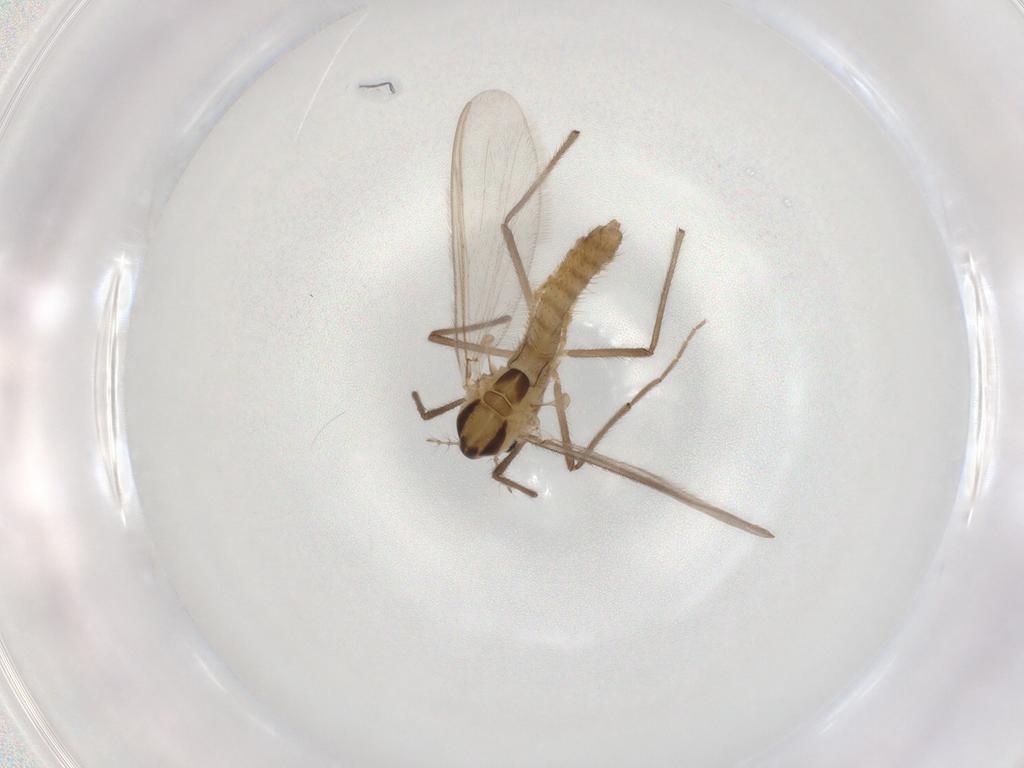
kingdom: Animalia
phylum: Arthropoda
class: Insecta
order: Diptera
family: Chironomidae
